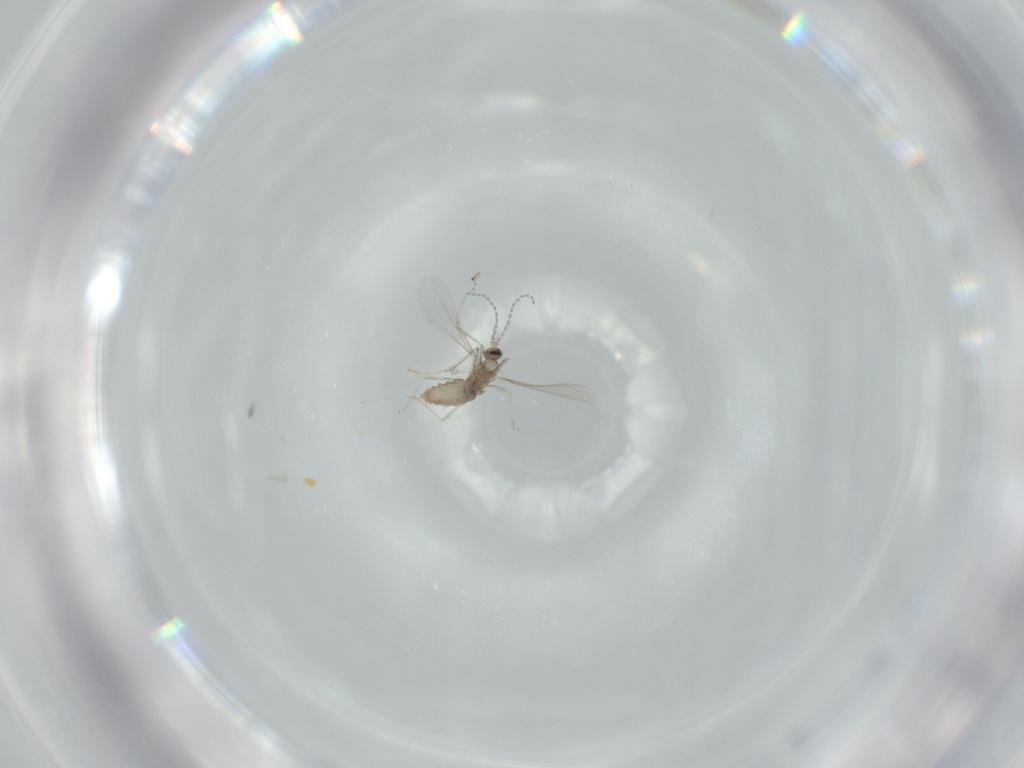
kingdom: Animalia
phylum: Arthropoda
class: Insecta
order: Diptera
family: Cecidomyiidae
